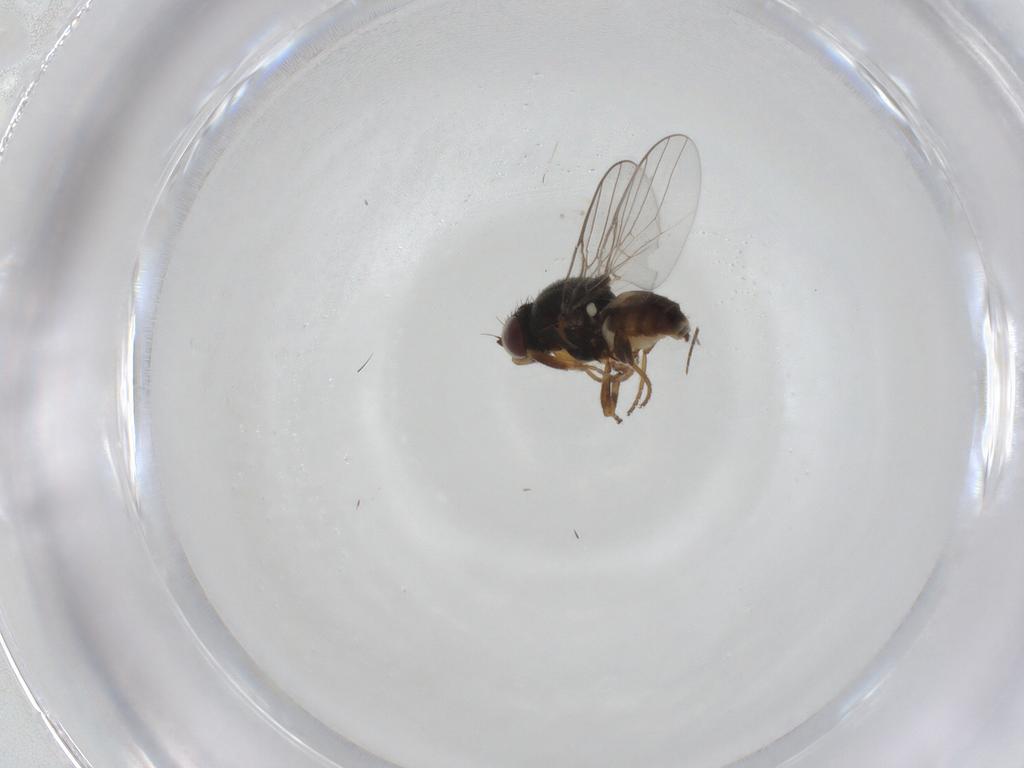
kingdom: Animalia
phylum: Arthropoda
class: Insecta
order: Diptera
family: Chloropidae
